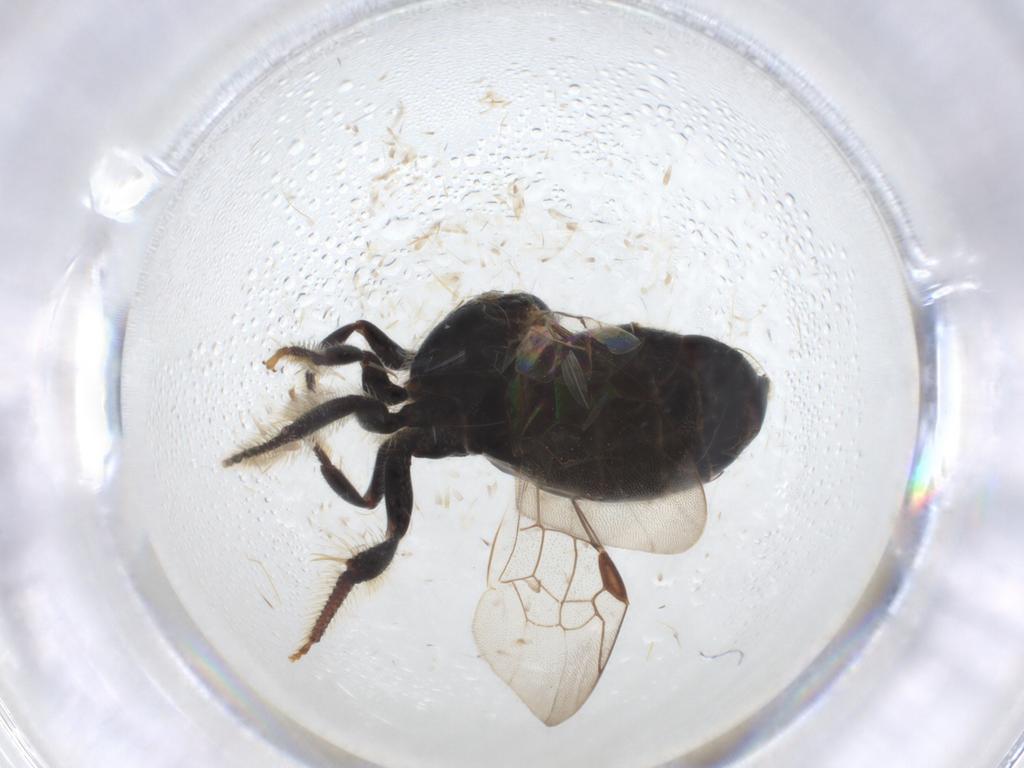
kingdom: Animalia
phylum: Arthropoda
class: Insecta
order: Hymenoptera
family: Formicidae
